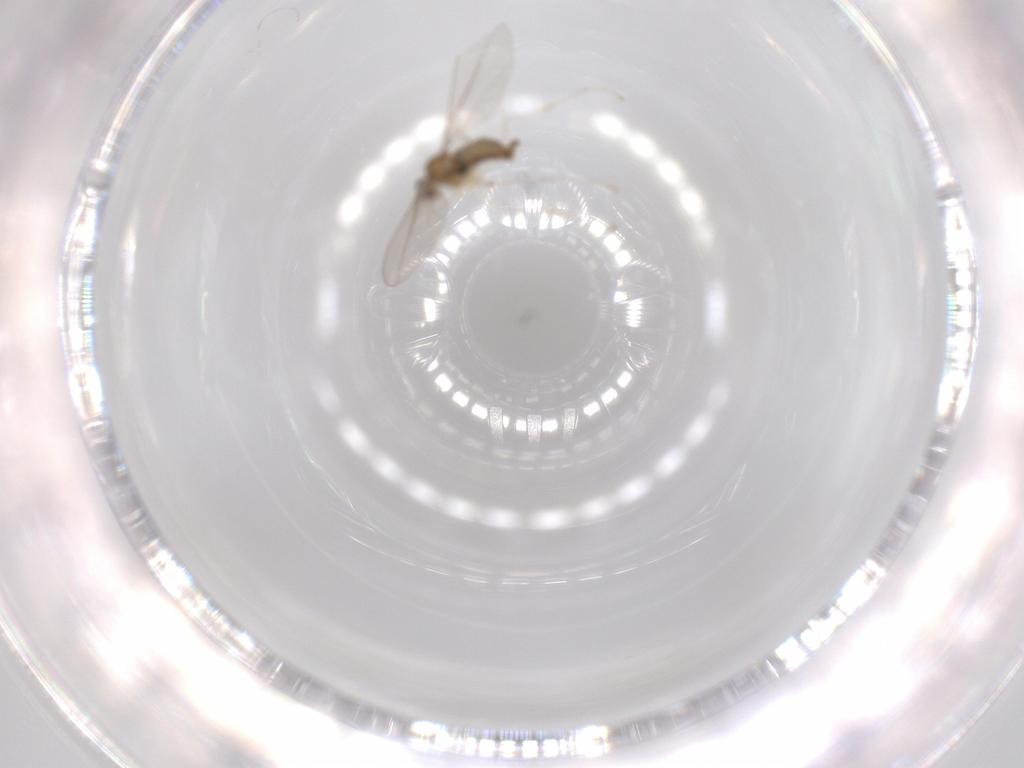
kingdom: Animalia
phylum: Arthropoda
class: Insecta
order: Diptera
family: Cecidomyiidae
